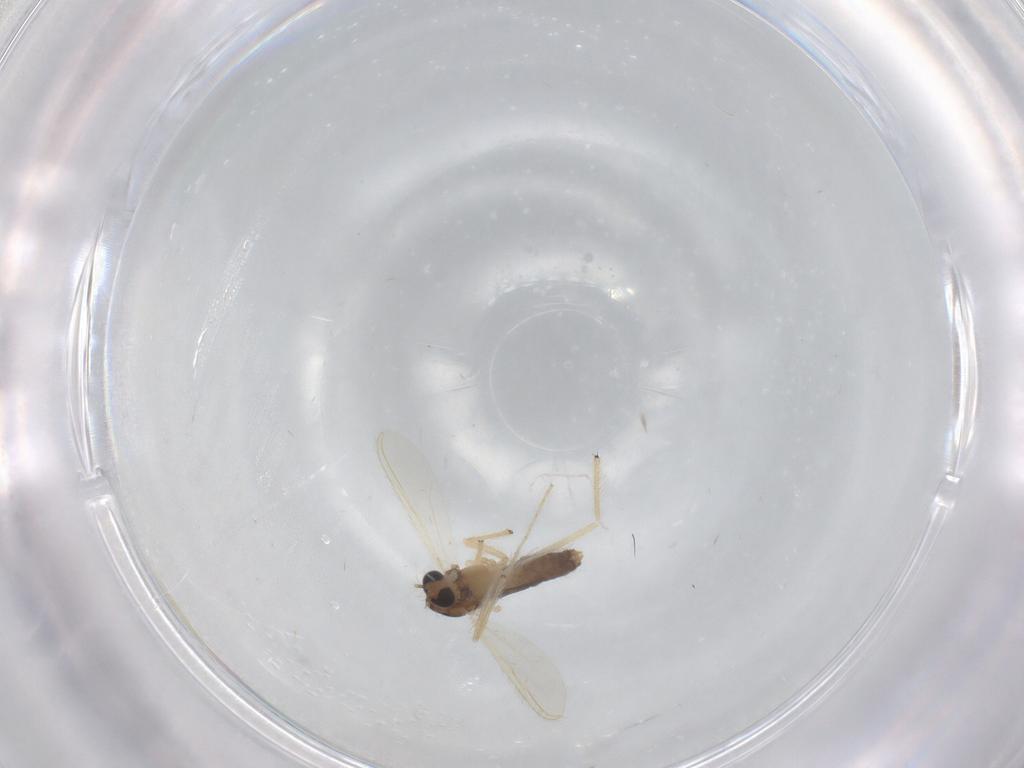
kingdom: Animalia
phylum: Arthropoda
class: Insecta
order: Diptera
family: Chironomidae
